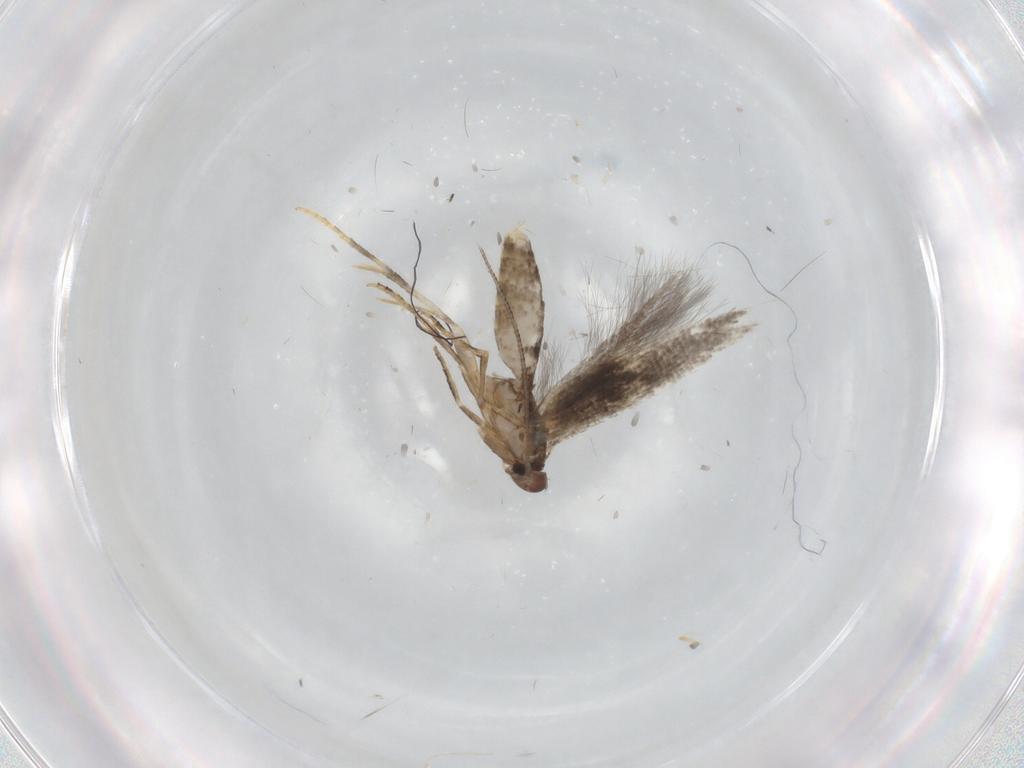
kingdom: Animalia
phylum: Arthropoda
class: Insecta
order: Lepidoptera
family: Elachistidae
